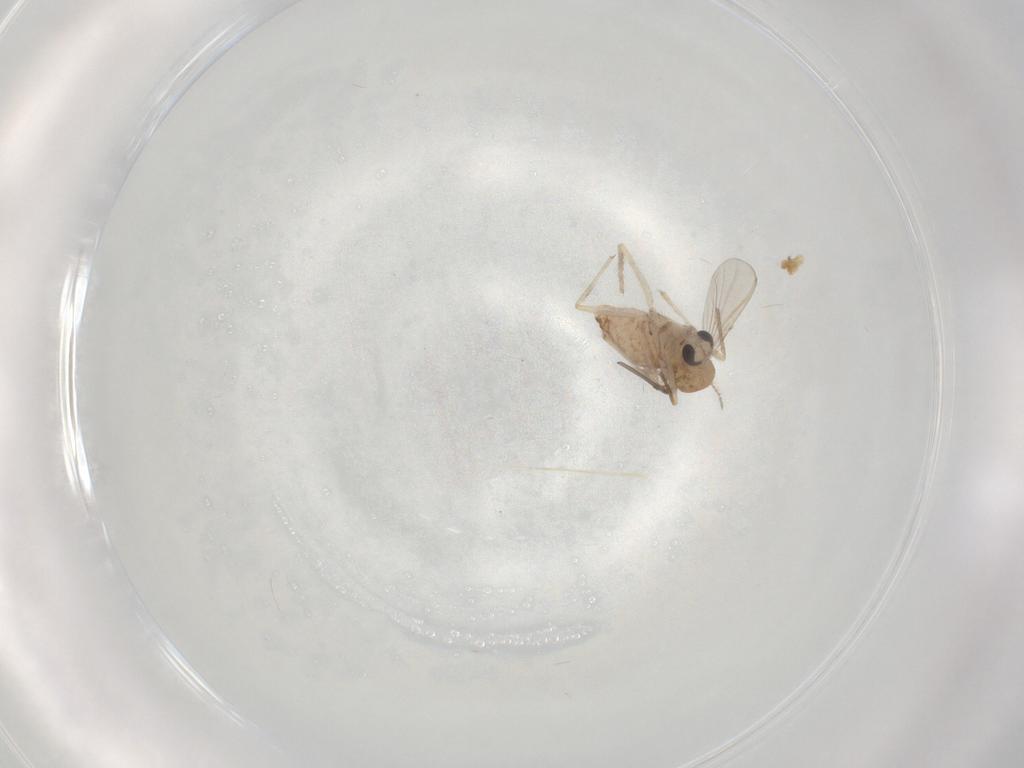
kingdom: Animalia
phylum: Arthropoda
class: Insecta
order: Diptera
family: Chironomidae
